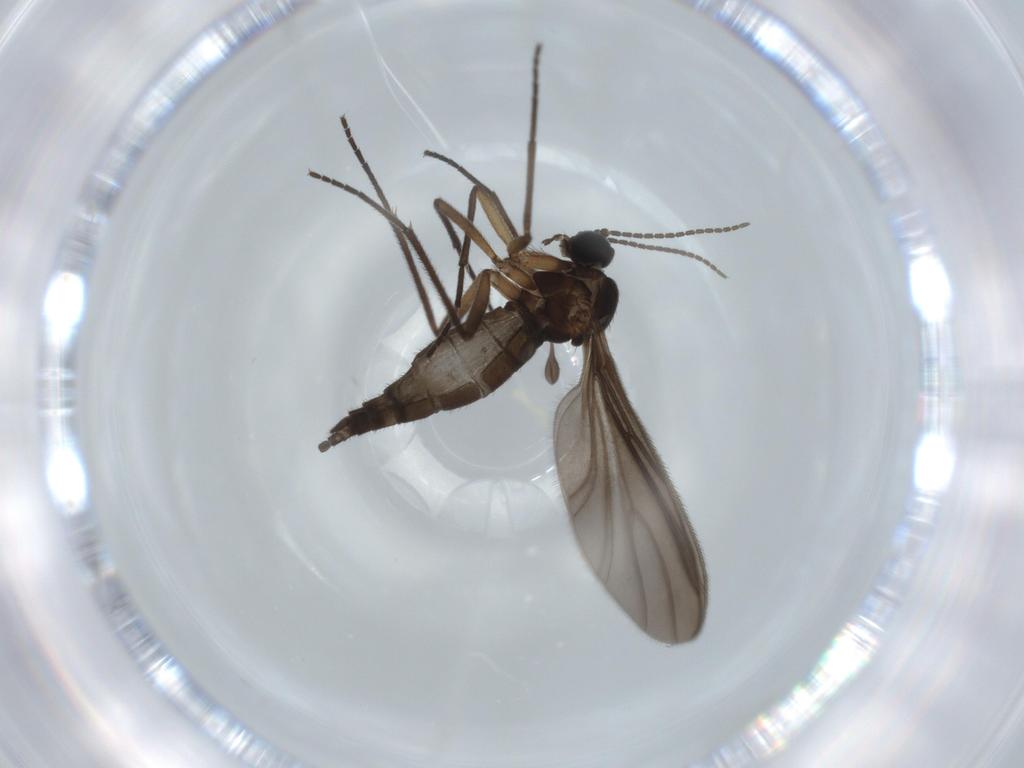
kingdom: Animalia
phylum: Arthropoda
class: Insecta
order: Diptera
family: Sciaridae
